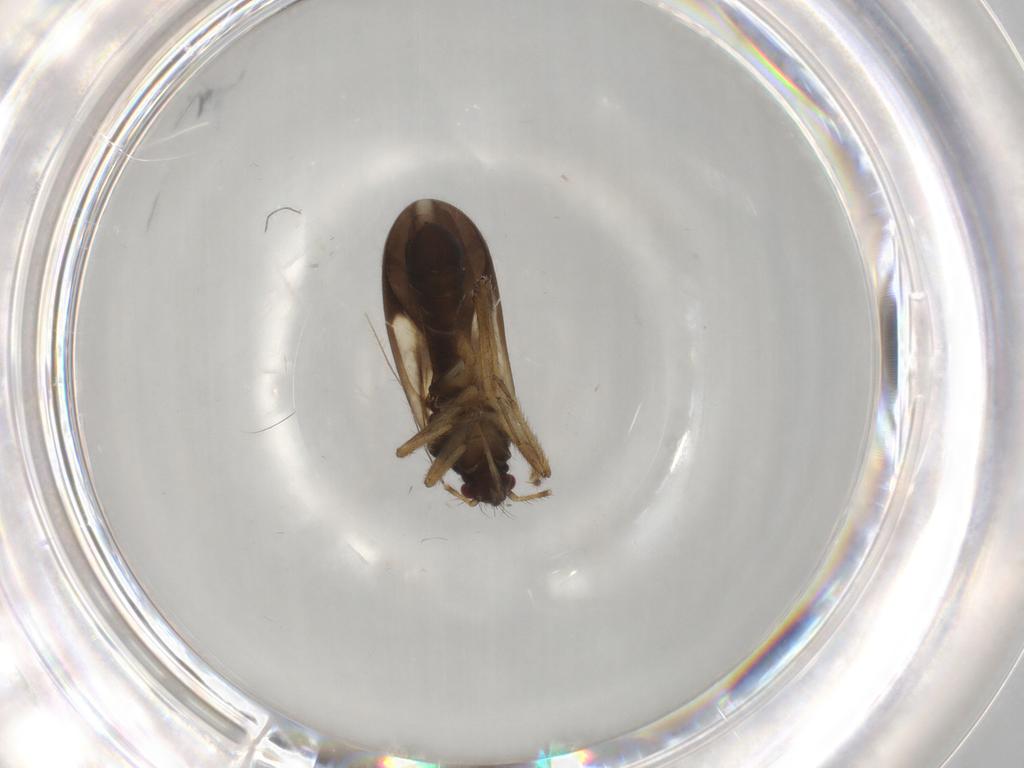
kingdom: Animalia
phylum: Arthropoda
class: Insecta
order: Hemiptera
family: Ceratocombidae
